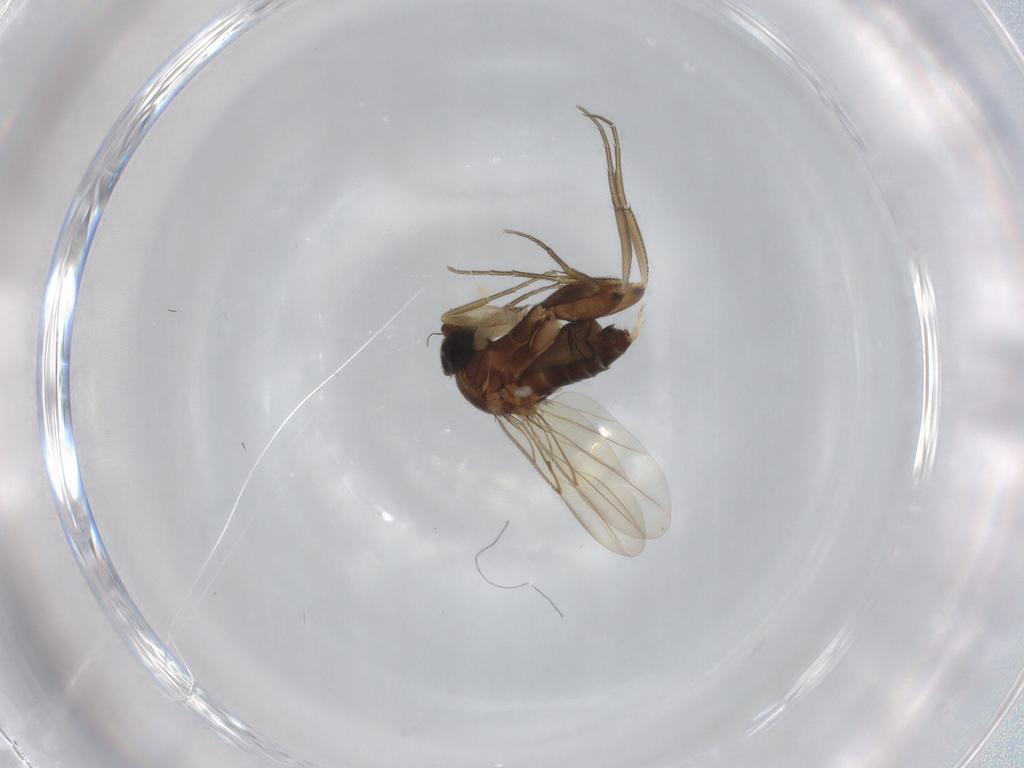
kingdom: Animalia
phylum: Arthropoda
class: Insecta
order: Diptera
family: Phoridae
